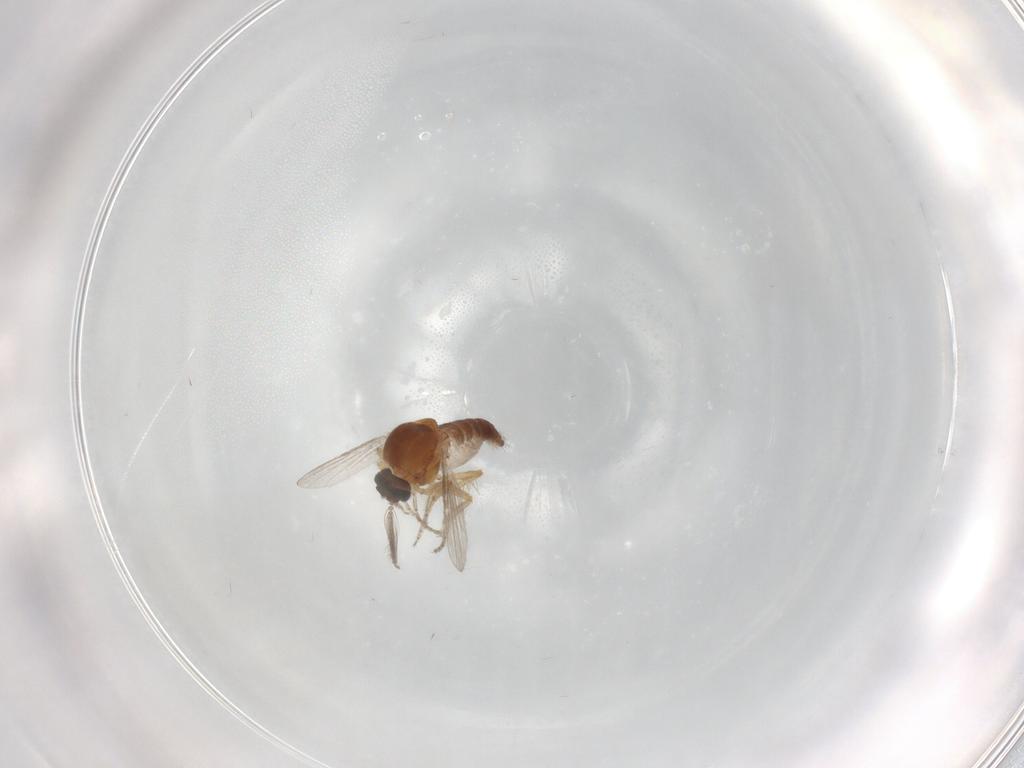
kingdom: Animalia
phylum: Arthropoda
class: Insecta
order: Diptera
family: Ceratopogonidae
